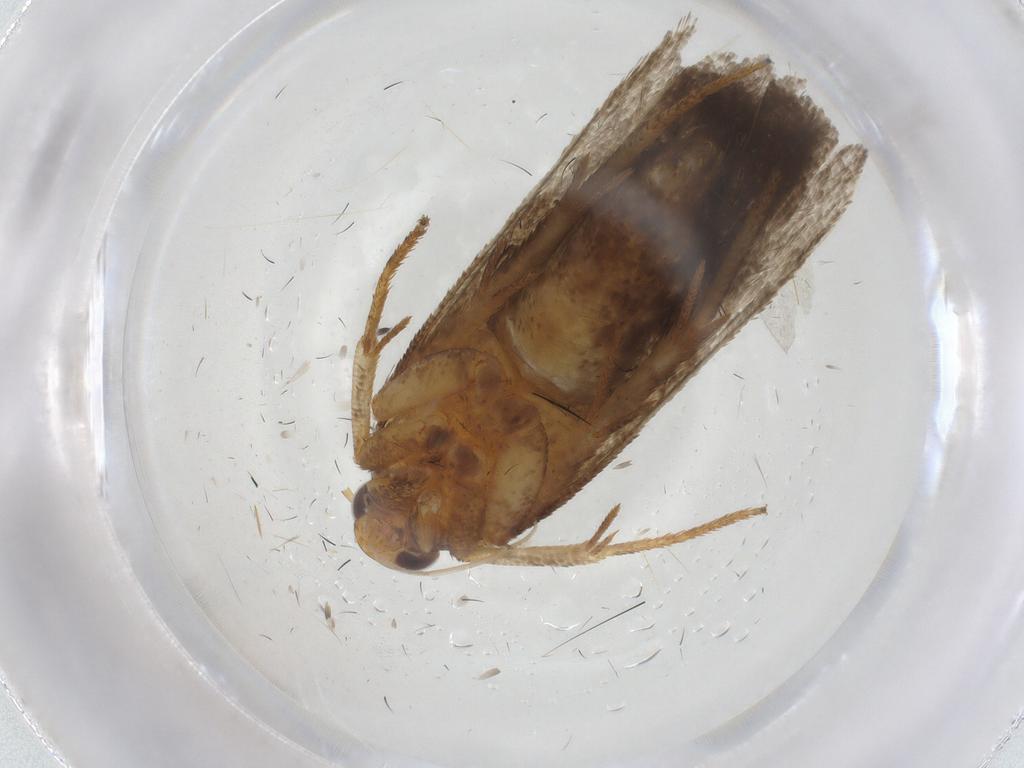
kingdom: Animalia
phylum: Arthropoda
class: Insecta
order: Lepidoptera
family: Gelechiidae
